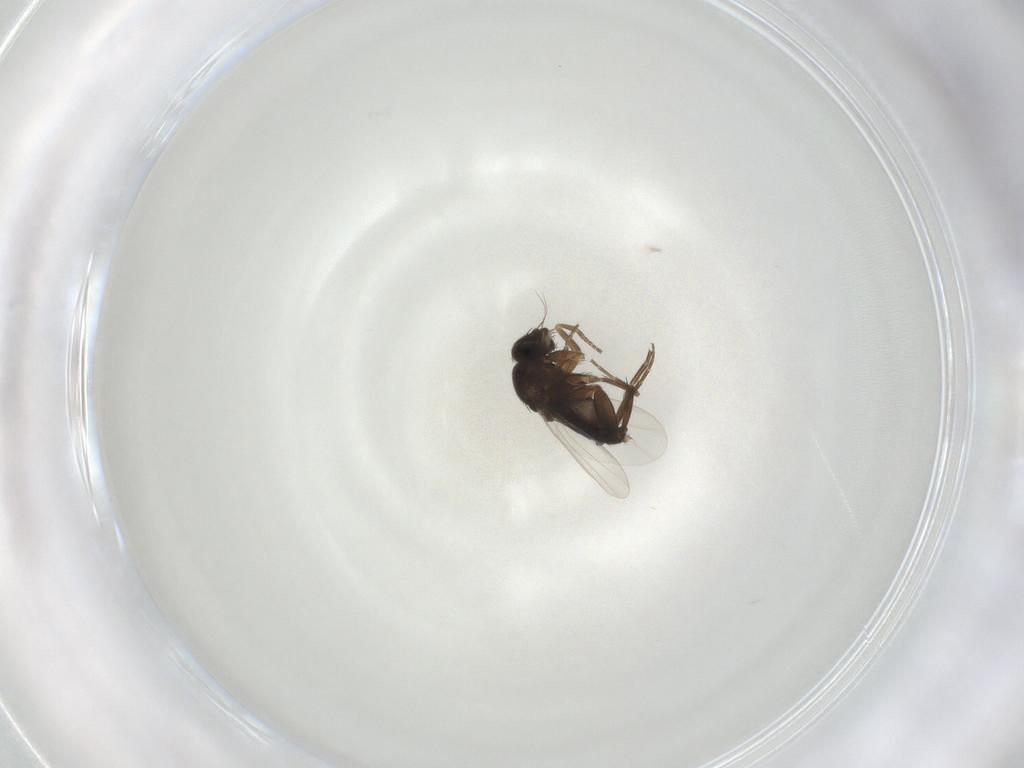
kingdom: Animalia
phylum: Arthropoda
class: Insecta
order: Diptera
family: Phoridae
